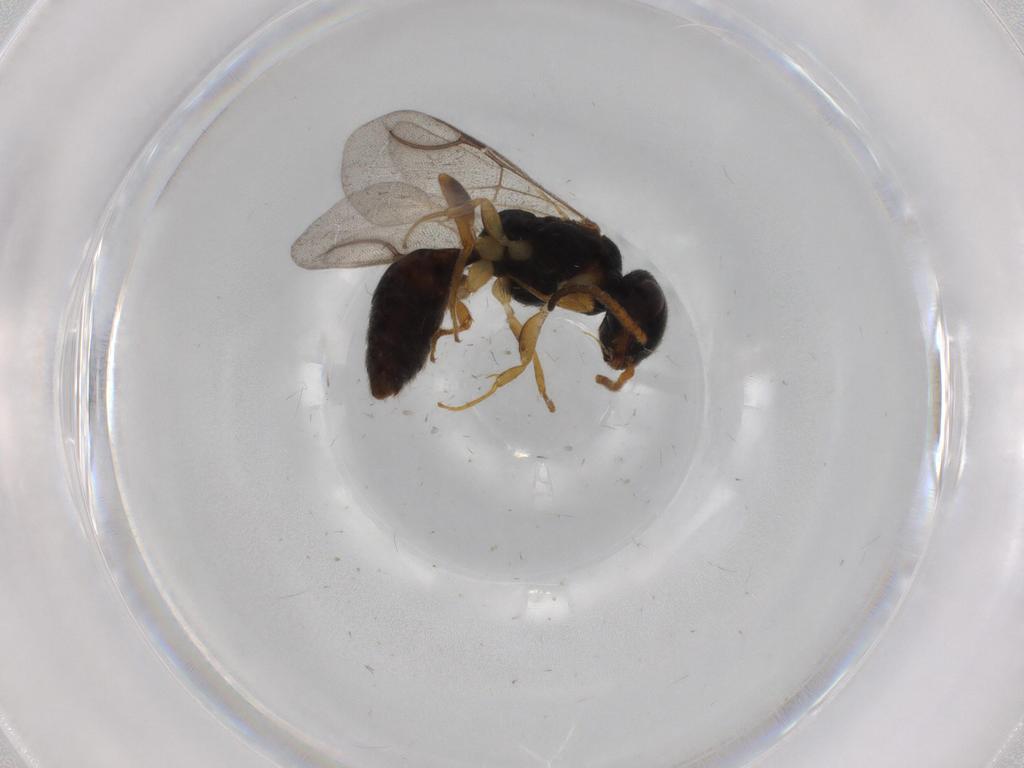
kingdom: Animalia
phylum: Arthropoda
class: Insecta
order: Hymenoptera
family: Bethylidae
